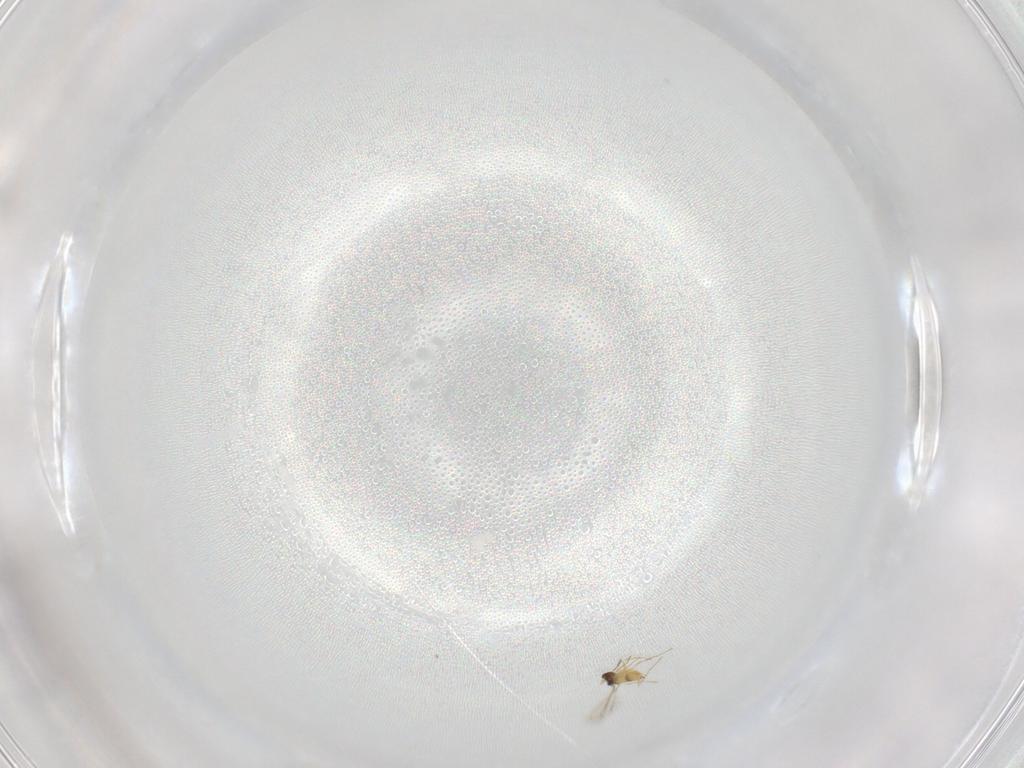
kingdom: Animalia
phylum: Arthropoda
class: Insecta
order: Hymenoptera
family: Mymaridae
